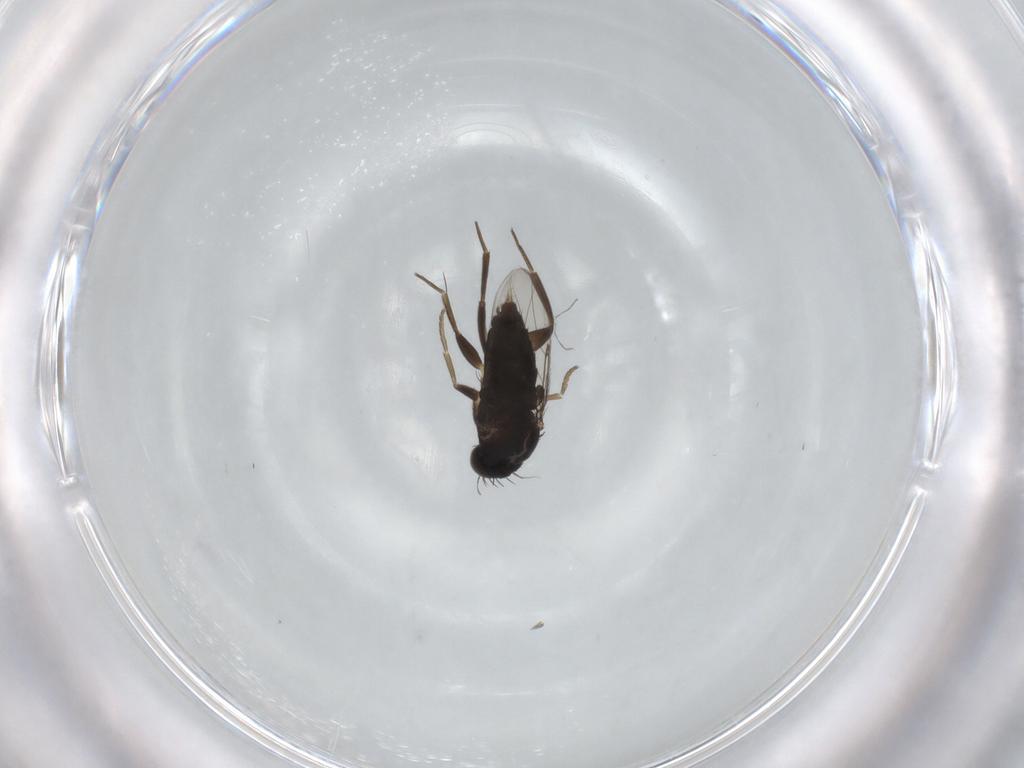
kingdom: Animalia
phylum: Arthropoda
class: Insecta
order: Diptera
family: Phoridae
